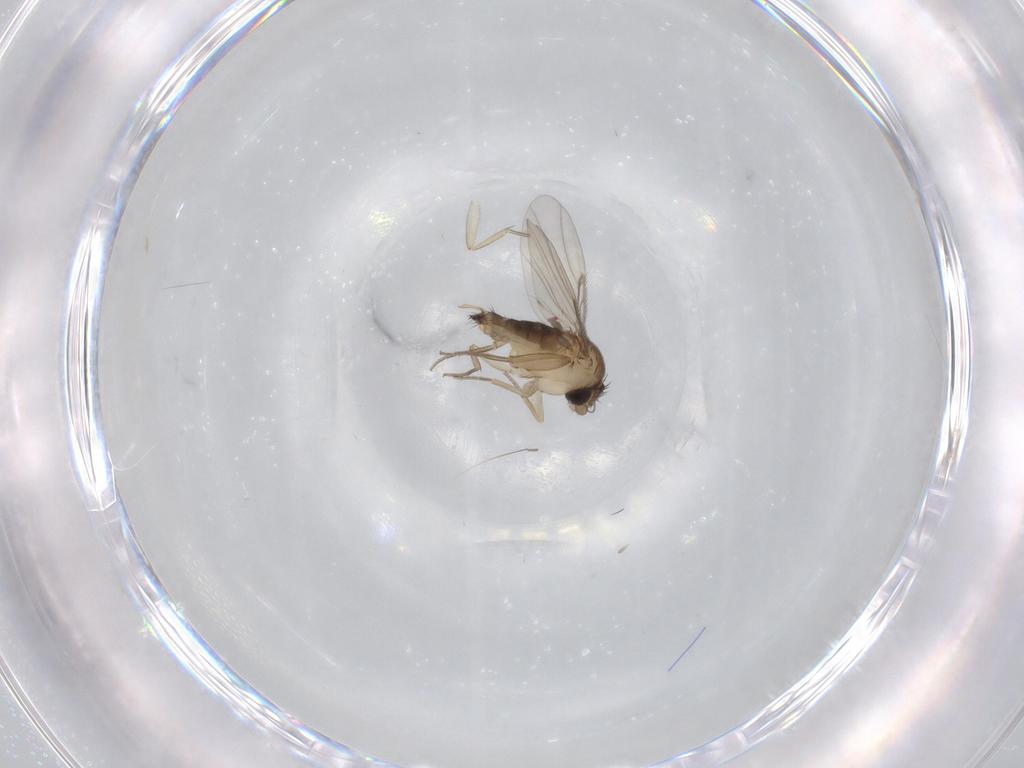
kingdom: Animalia
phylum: Arthropoda
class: Insecta
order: Diptera
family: Phoridae
